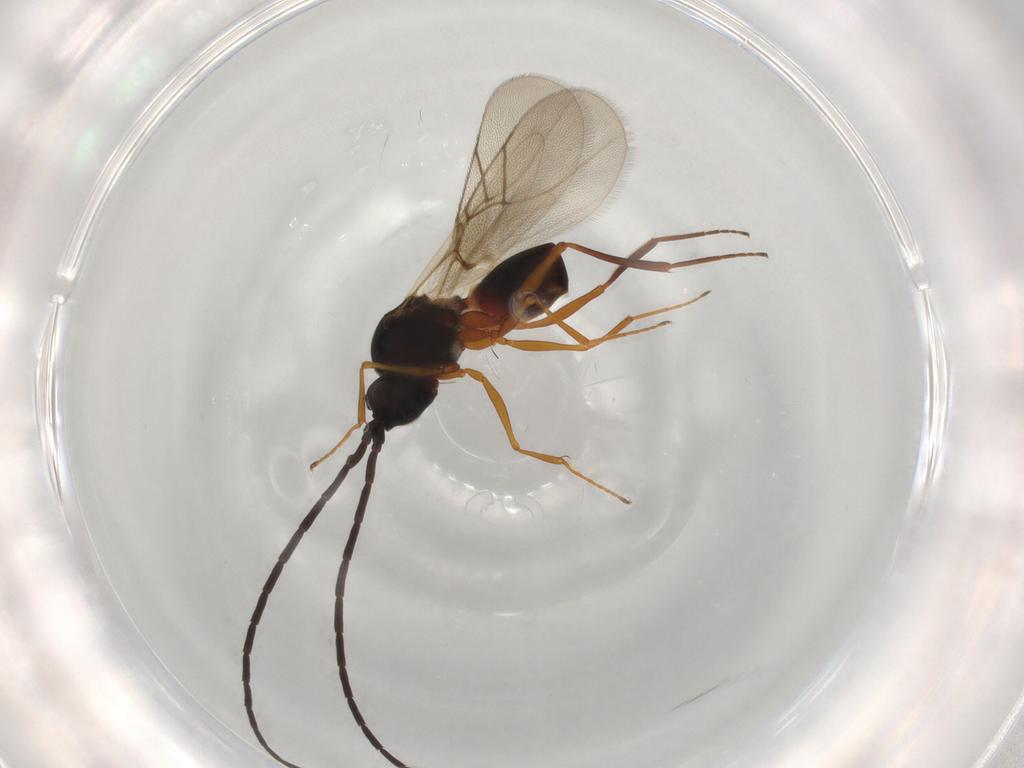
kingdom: Animalia
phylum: Arthropoda
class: Insecta
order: Hymenoptera
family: Figitidae
